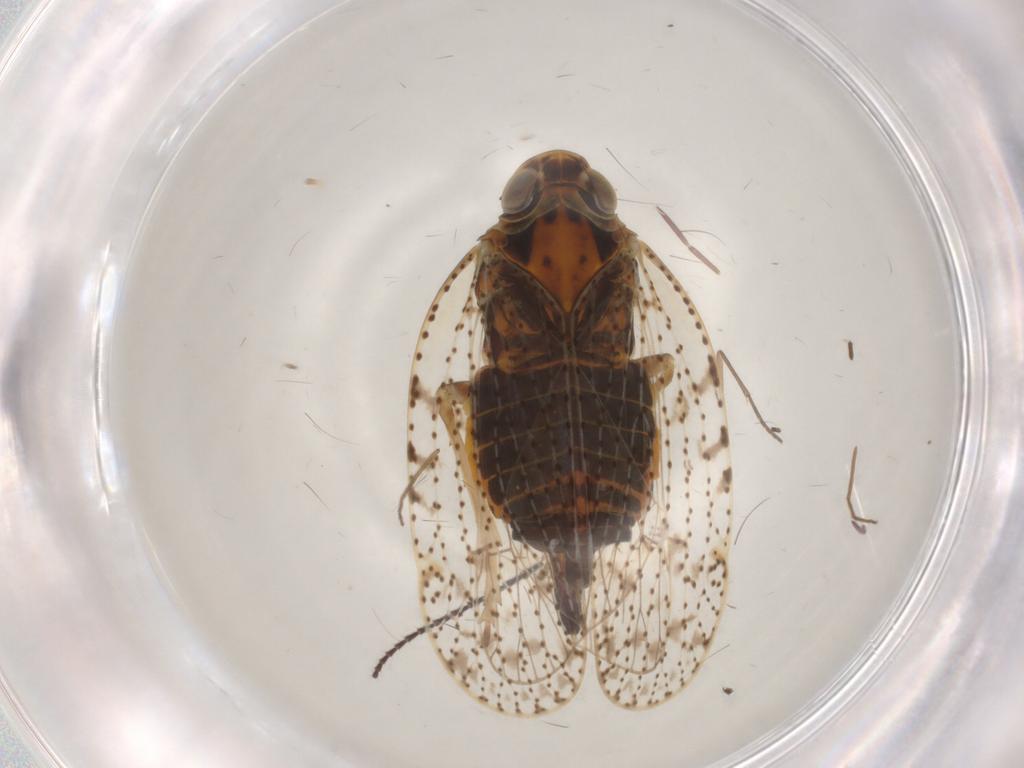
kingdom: Animalia
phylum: Arthropoda
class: Insecta
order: Hemiptera
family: Cixiidae
